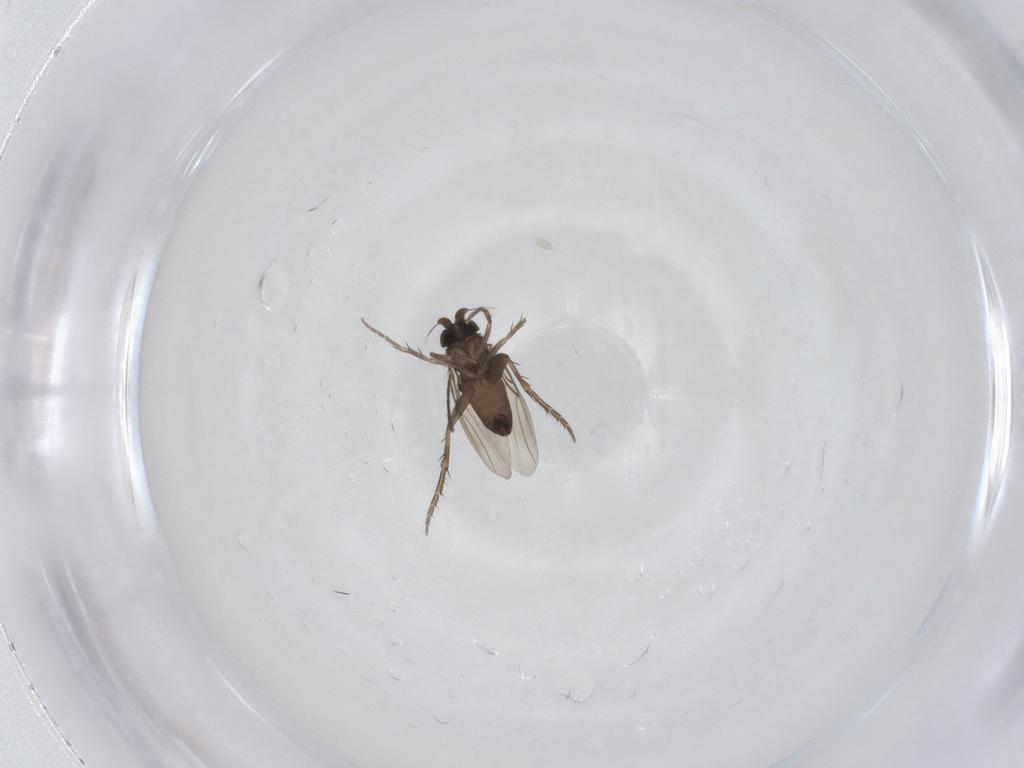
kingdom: Animalia
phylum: Arthropoda
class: Insecta
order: Diptera
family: Phoridae
